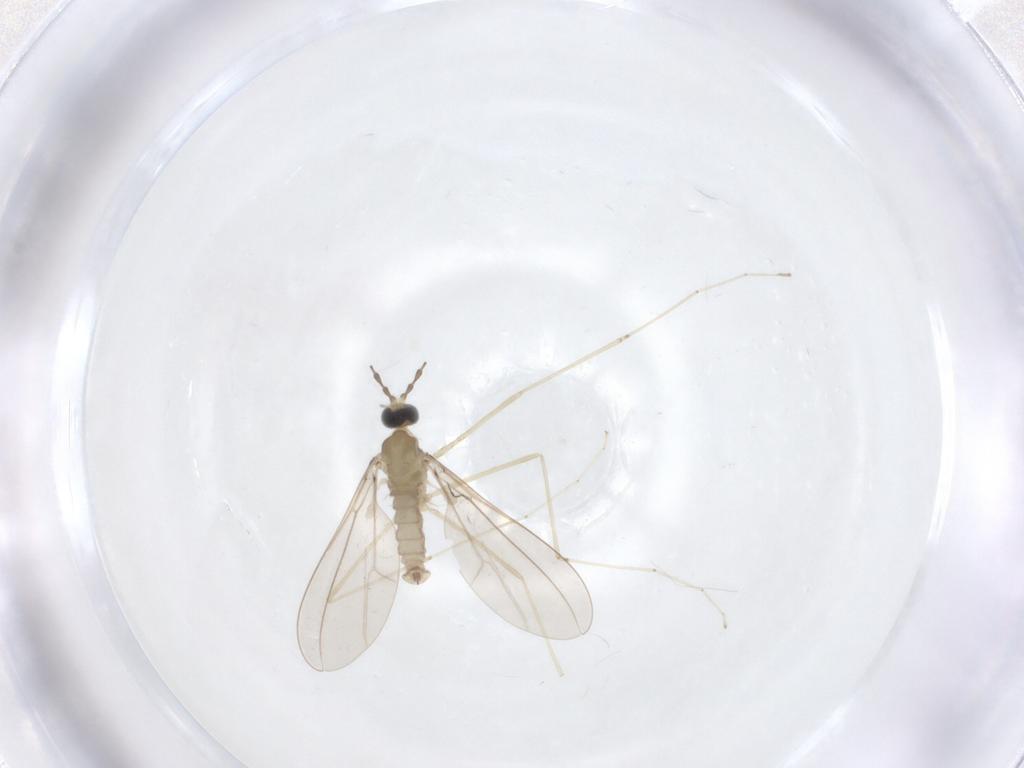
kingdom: Animalia
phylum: Arthropoda
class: Insecta
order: Diptera
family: Cecidomyiidae
